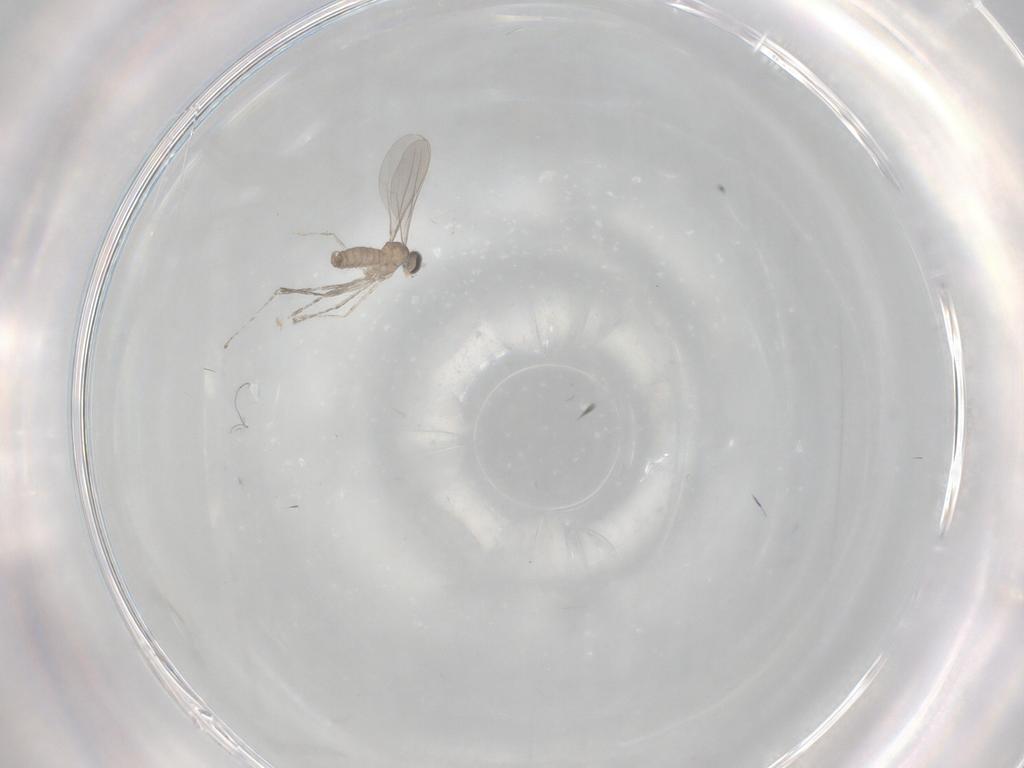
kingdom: Animalia
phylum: Arthropoda
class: Insecta
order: Diptera
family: Cecidomyiidae
